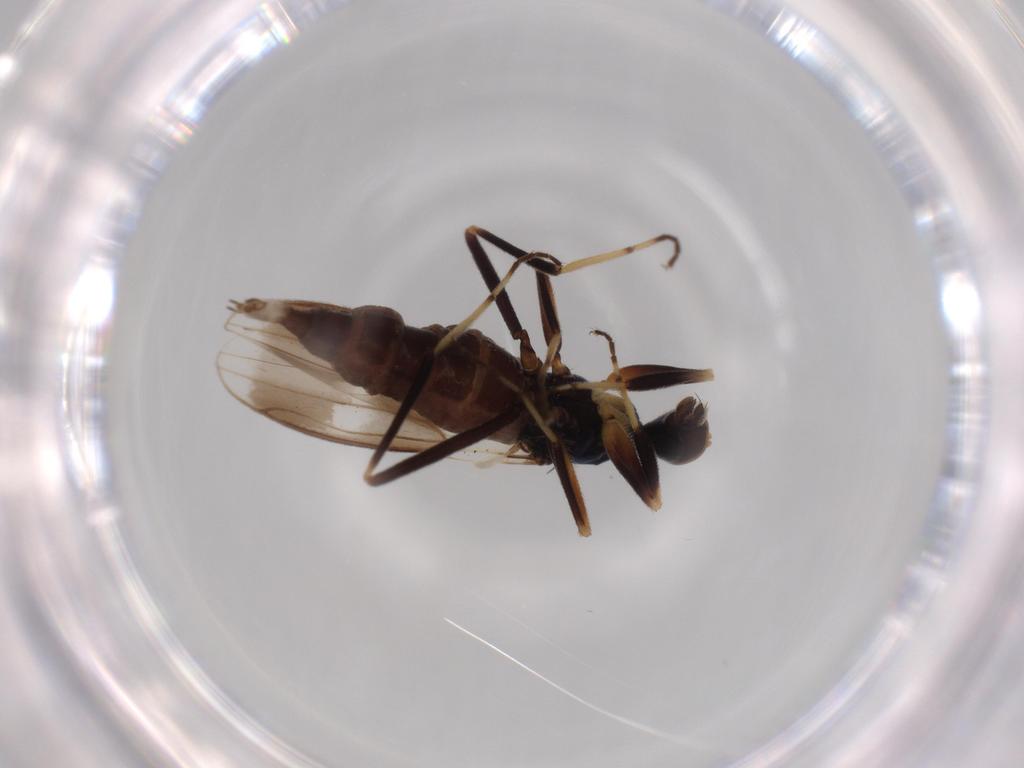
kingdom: Animalia
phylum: Arthropoda
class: Insecta
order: Diptera
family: Hybotidae
